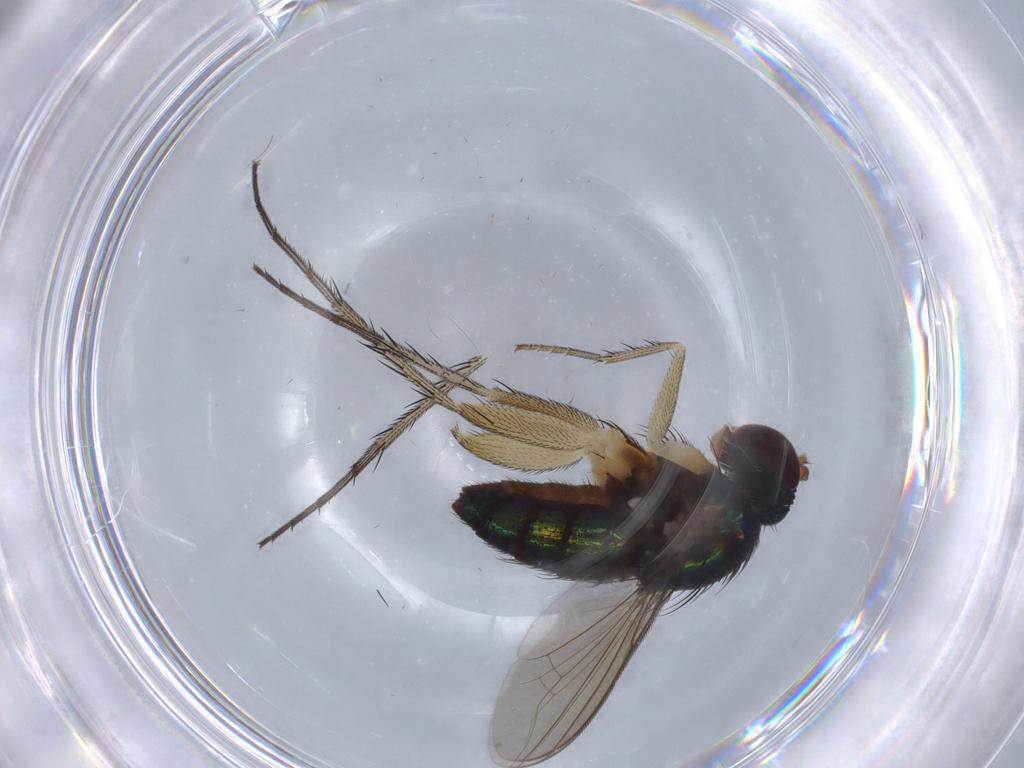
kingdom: Animalia
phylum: Arthropoda
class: Insecta
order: Diptera
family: Dolichopodidae
